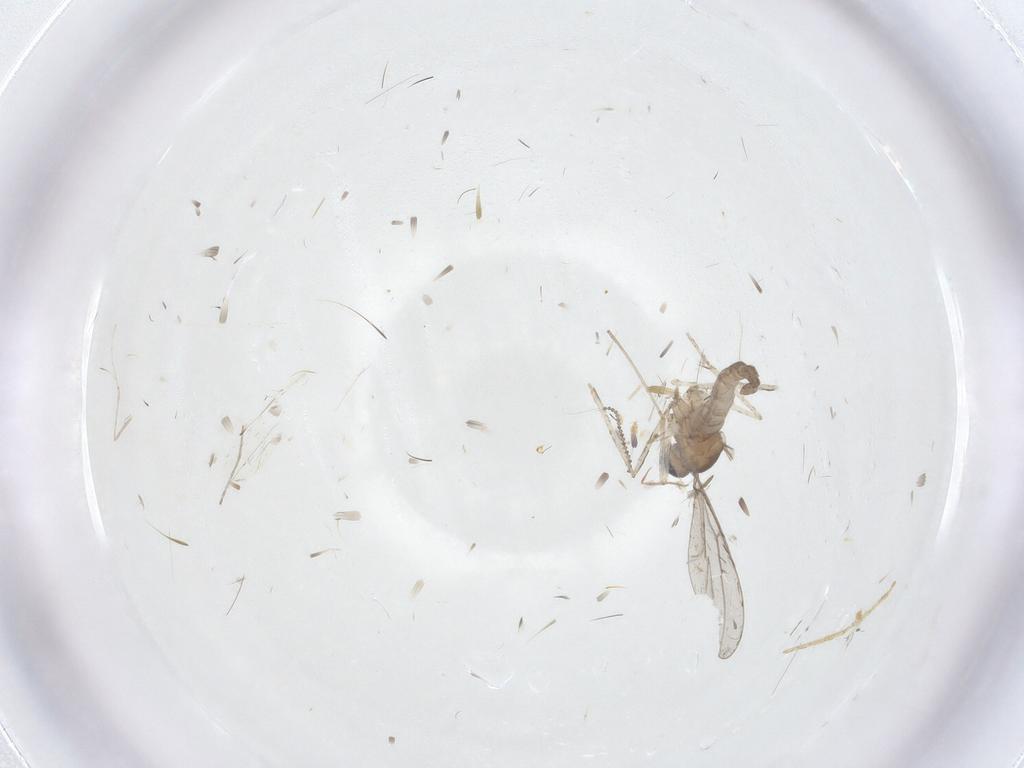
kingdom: Animalia
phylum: Arthropoda
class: Insecta
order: Diptera
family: Cecidomyiidae
